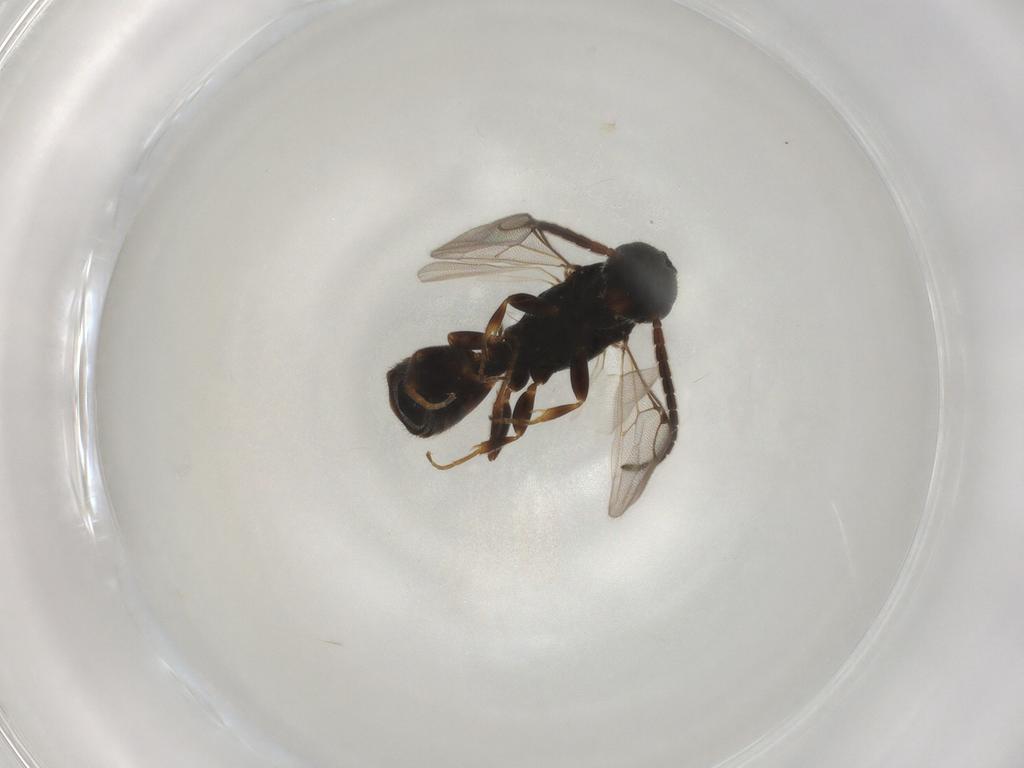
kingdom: Animalia
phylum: Arthropoda
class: Insecta
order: Hymenoptera
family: Bethylidae
